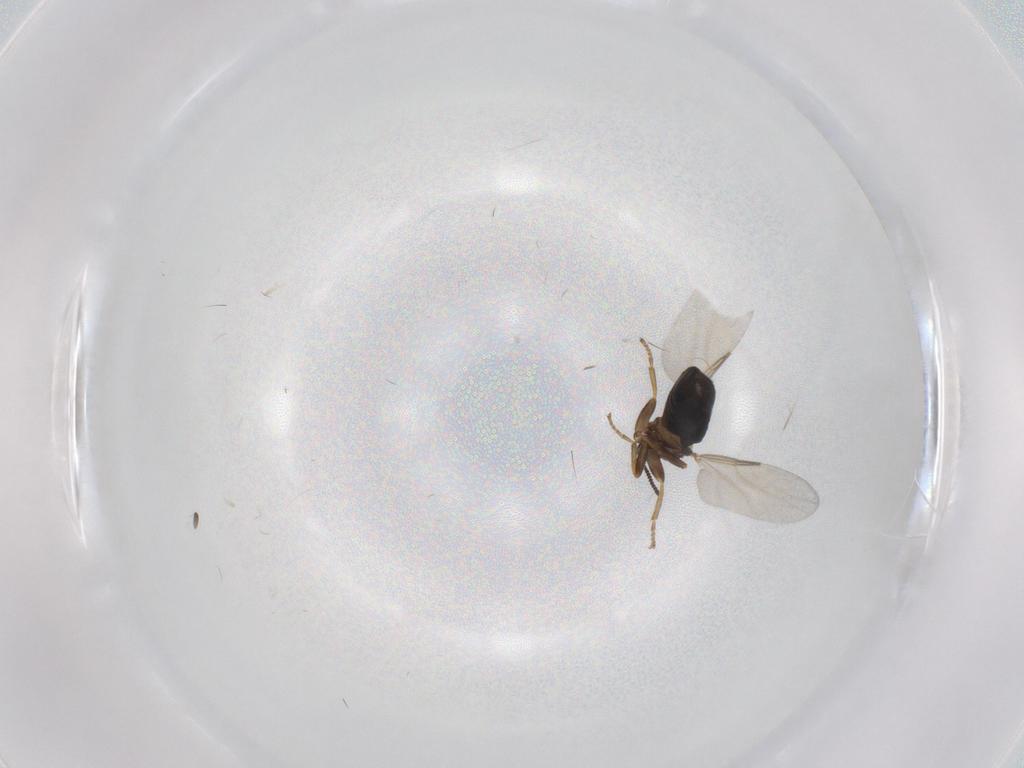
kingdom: Animalia
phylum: Arthropoda
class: Insecta
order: Diptera
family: Scatopsidae
